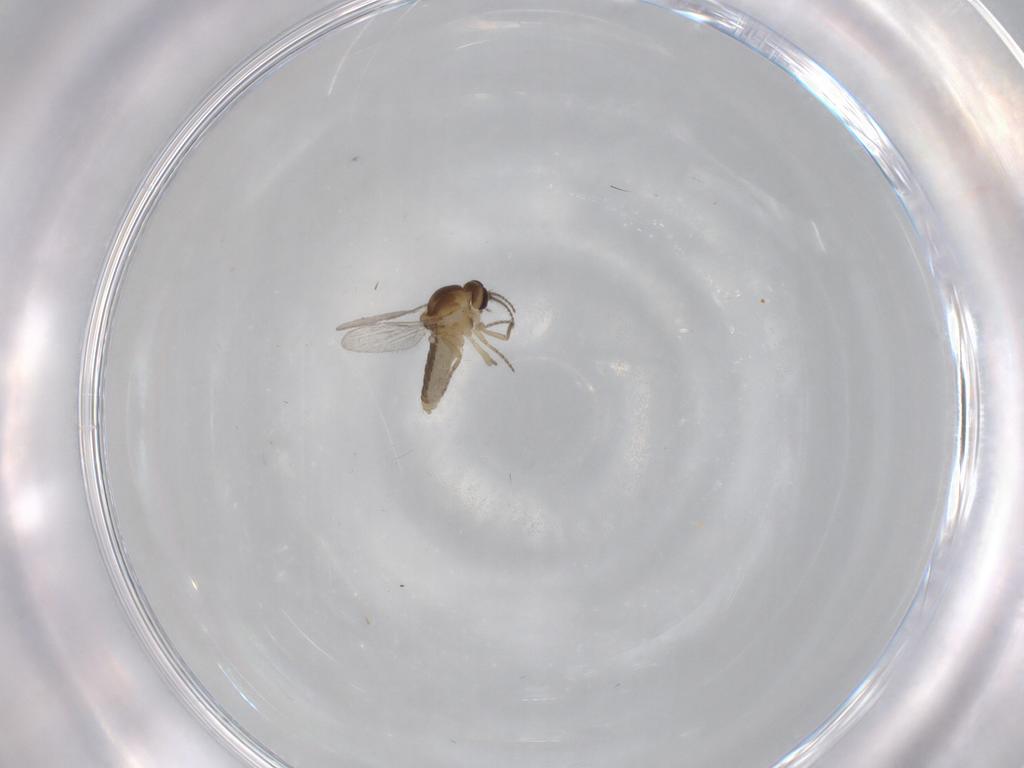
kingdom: Animalia
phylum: Arthropoda
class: Insecta
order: Diptera
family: Ceratopogonidae
